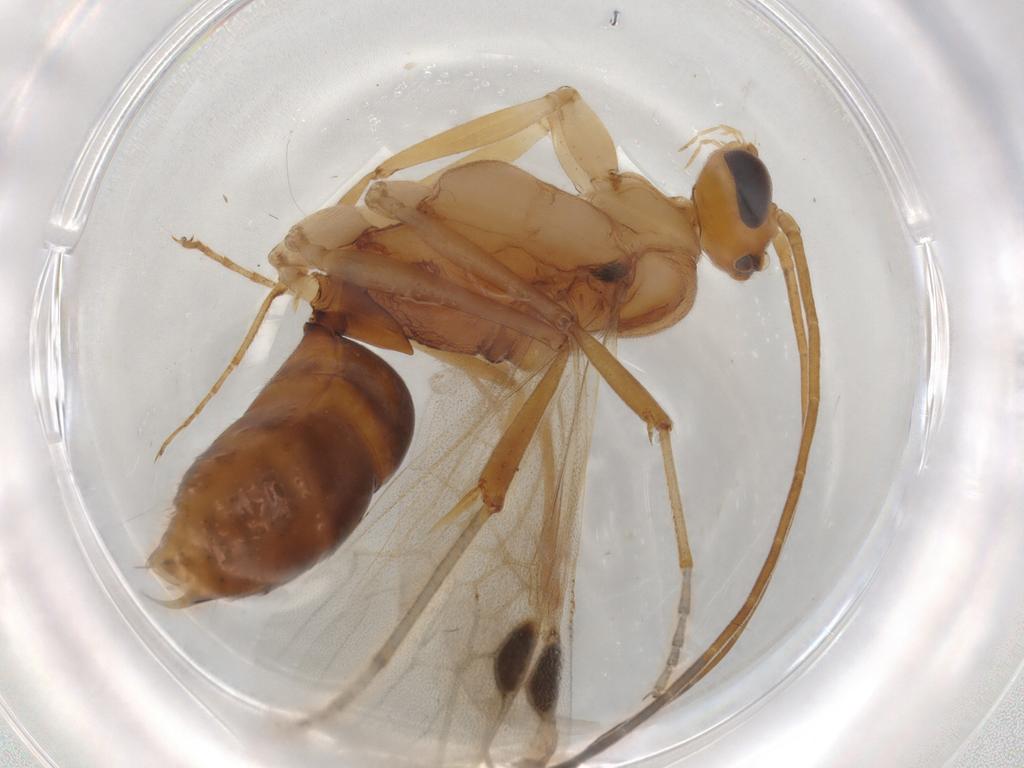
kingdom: Animalia
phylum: Arthropoda
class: Insecta
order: Hymenoptera
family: Formicidae
